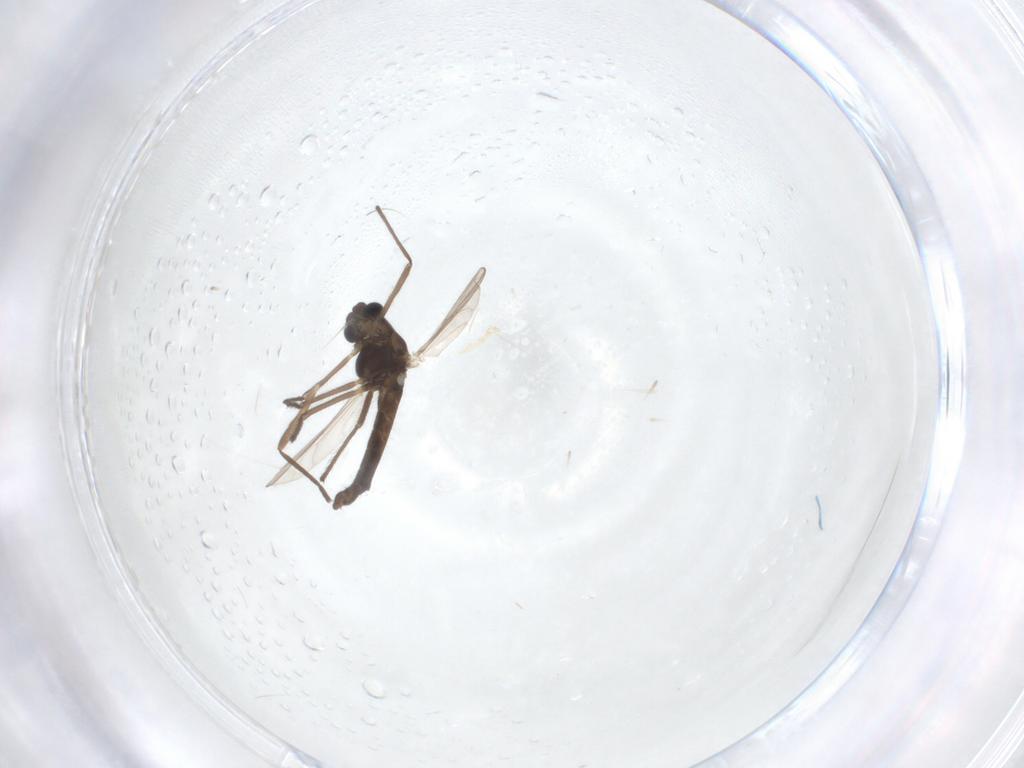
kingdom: Animalia
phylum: Arthropoda
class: Insecta
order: Diptera
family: Chironomidae
